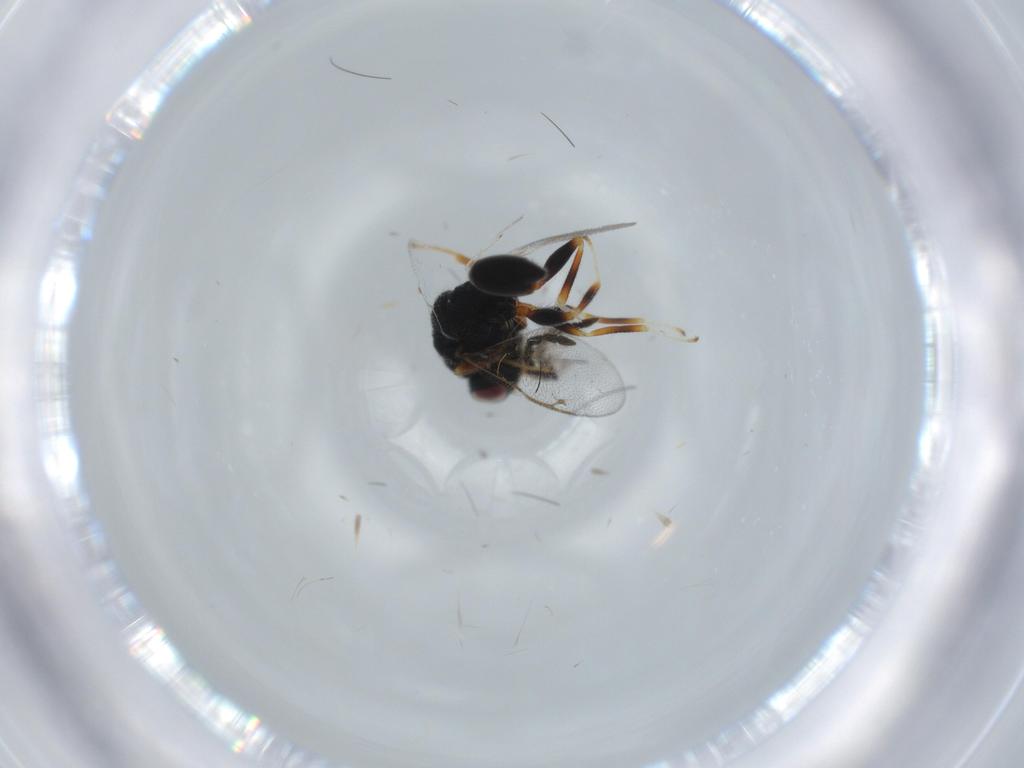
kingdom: Animalia
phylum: Arthropoda
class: Insecta
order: Hymenoptera
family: Eurytomidae
